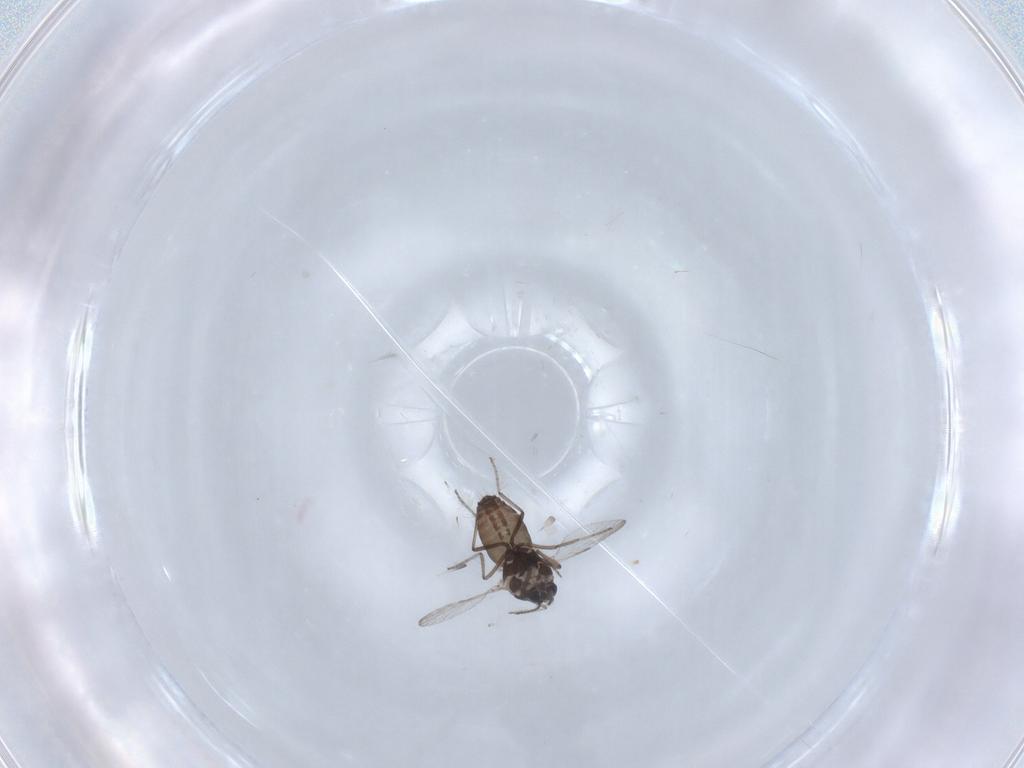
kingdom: Animalia
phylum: Arthropoda
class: Insecta
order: Diptera
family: Ceratopogonidae
